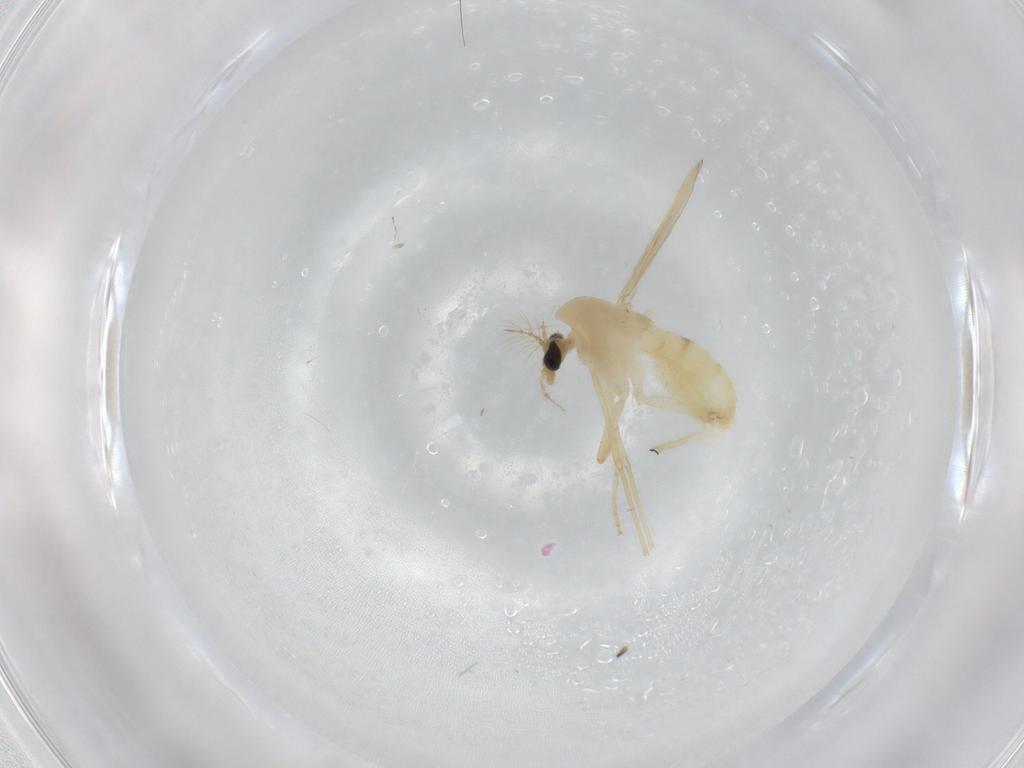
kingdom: Animalia
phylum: Arthropoda
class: Insecta
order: Diptera
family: Chironomidae
